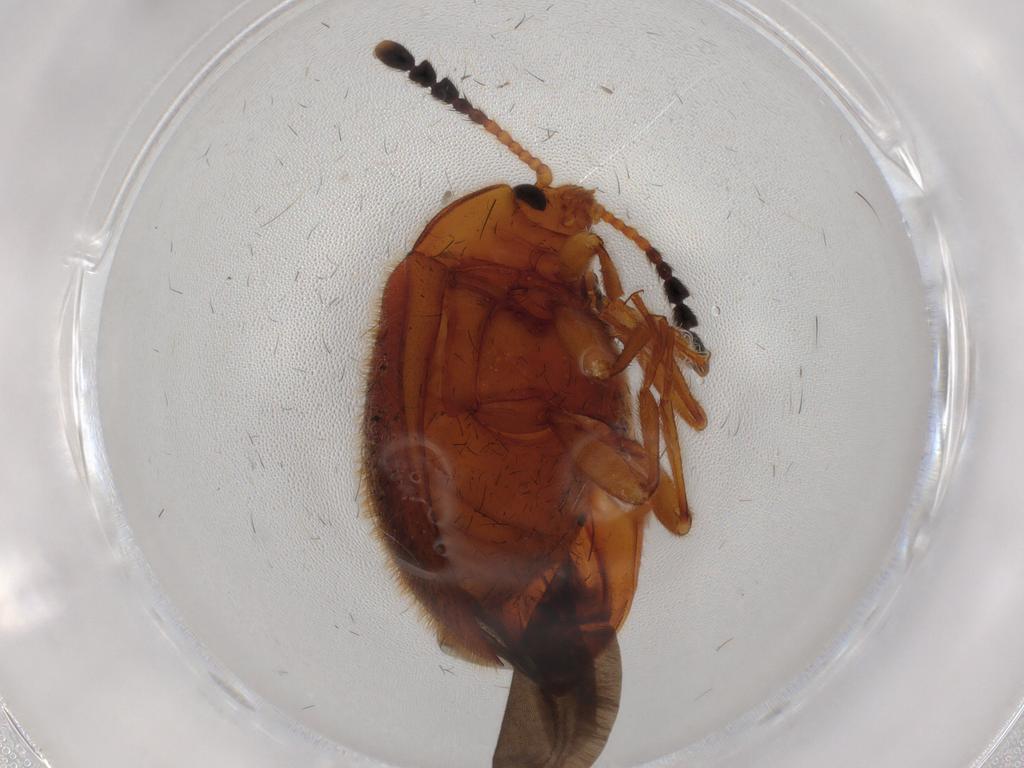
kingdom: Animalia
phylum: Arthropoda
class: Insecta
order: Coleoptera
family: Endomychidae
